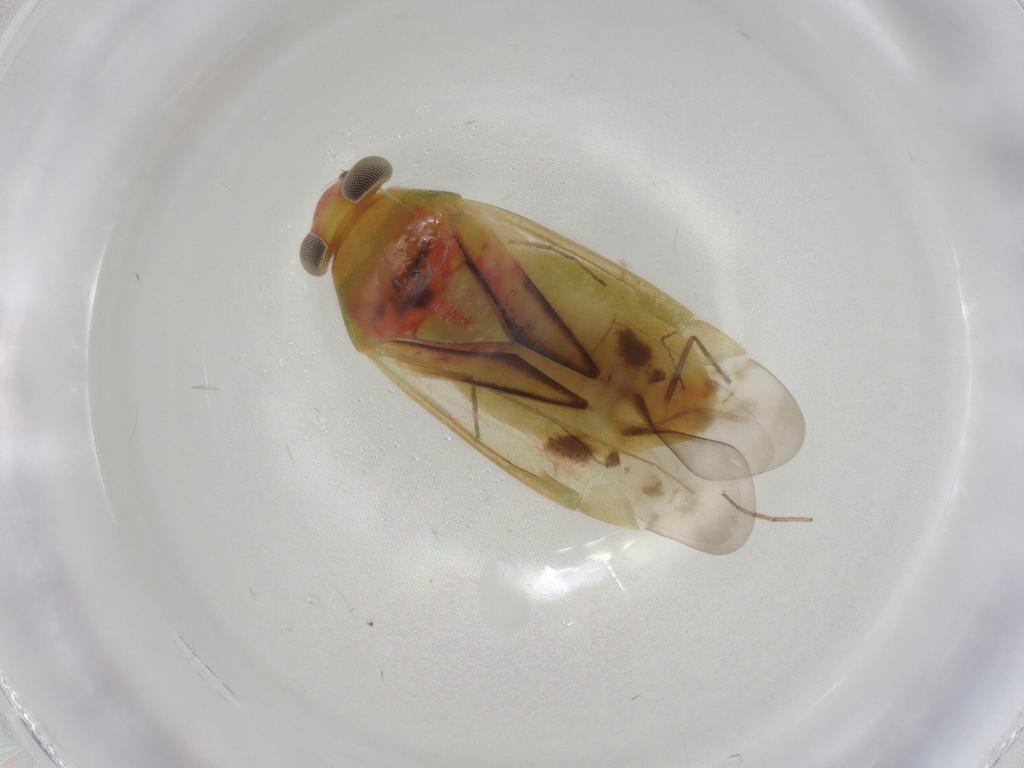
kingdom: Animalia
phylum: Arthropoda
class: Insecta
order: Hemiptera
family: Miridae
